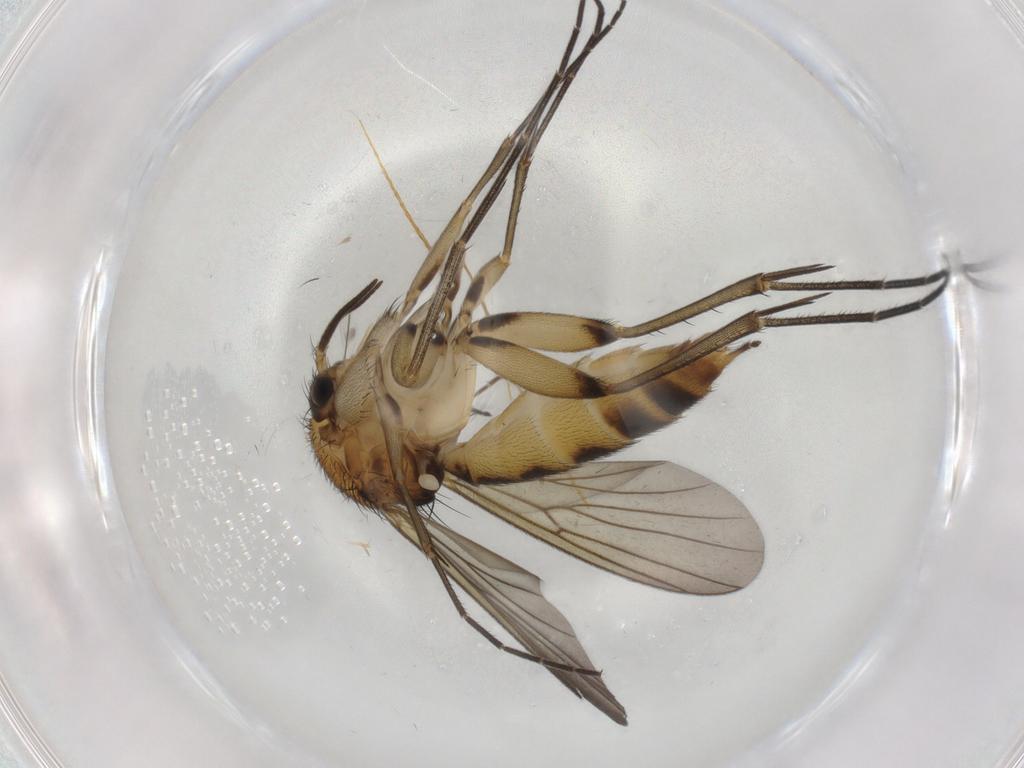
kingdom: Animalia
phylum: Arthropoda
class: Insecta
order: Diptera
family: Mycetophilidae
